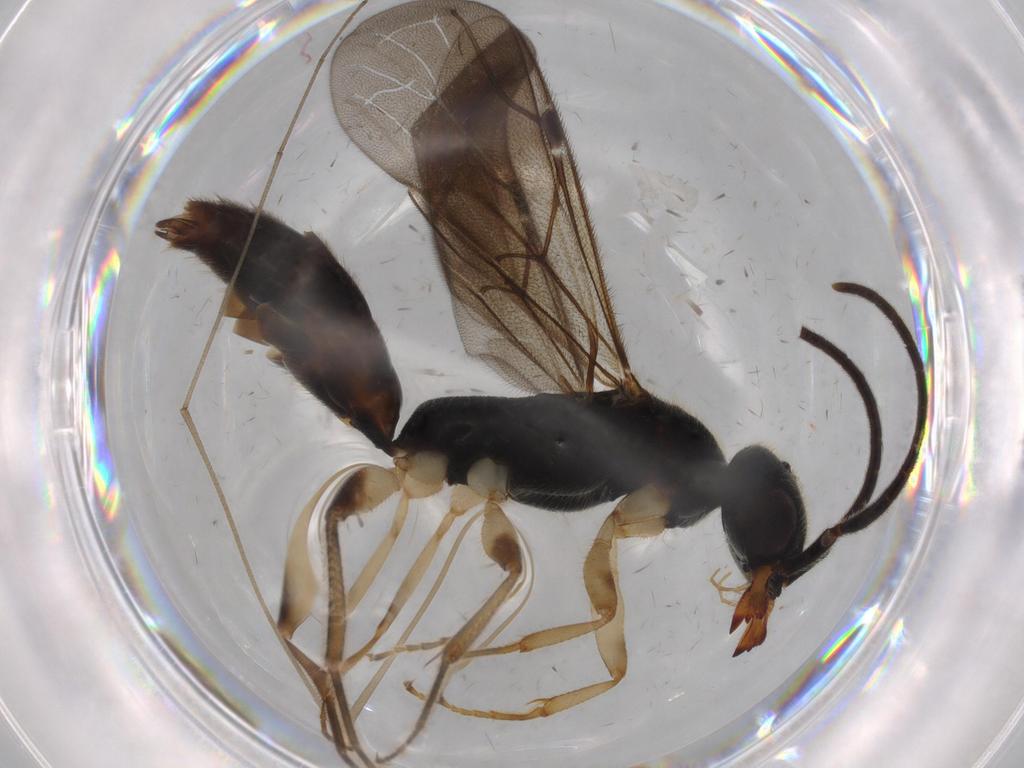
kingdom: Animalia
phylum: Arthropoda
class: Insecta
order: Hymenoptera
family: Bethylidae
